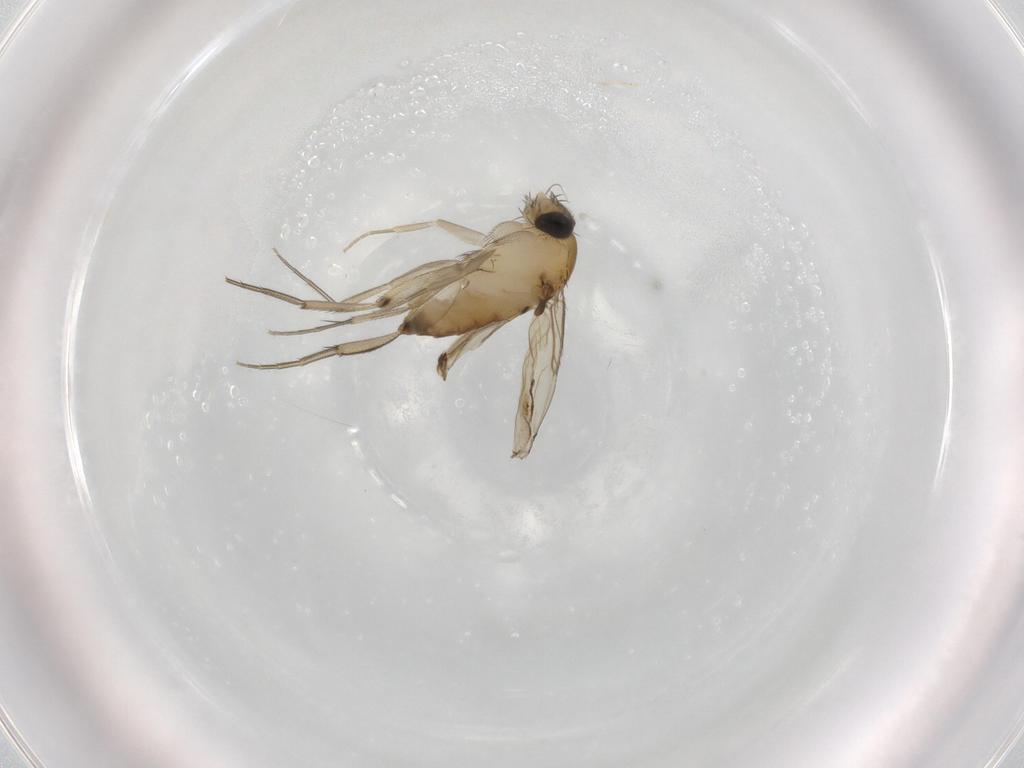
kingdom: Animalia
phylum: Arthropoda
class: Insecta
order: Diptera
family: Phoridae
